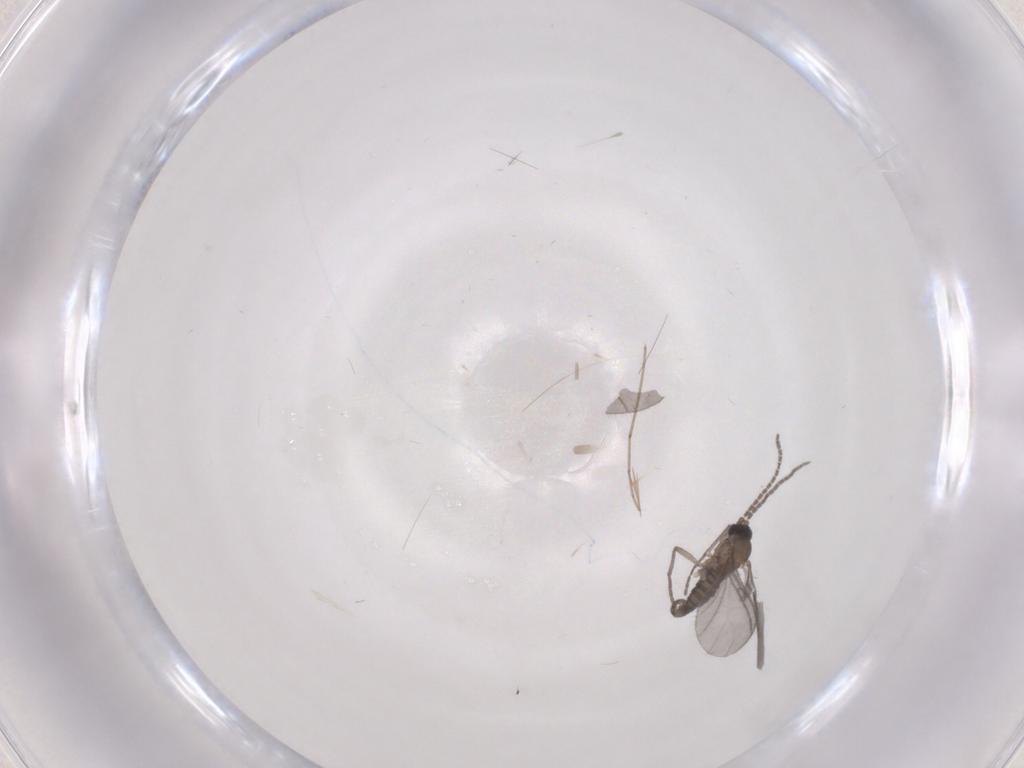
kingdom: Animalia
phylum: Arthropoda
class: Insecta
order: Diptera
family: Sciaridae
